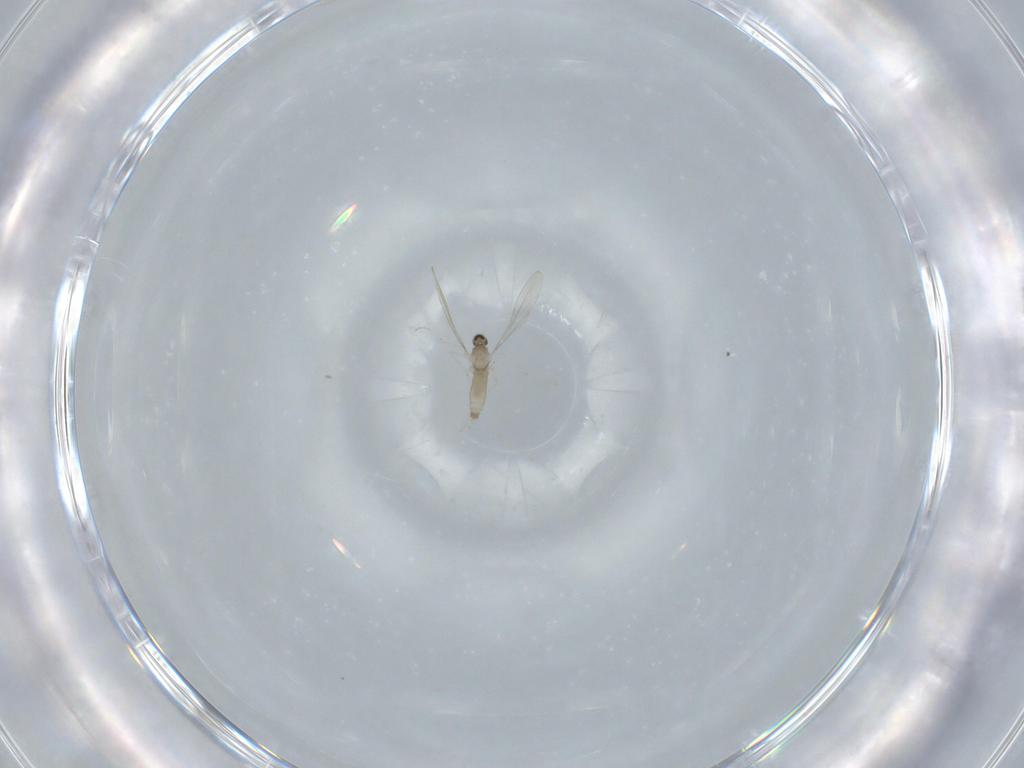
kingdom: Animalia
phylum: Arthropoda
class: Insecta
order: Diptera
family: Cecidomyiidae
